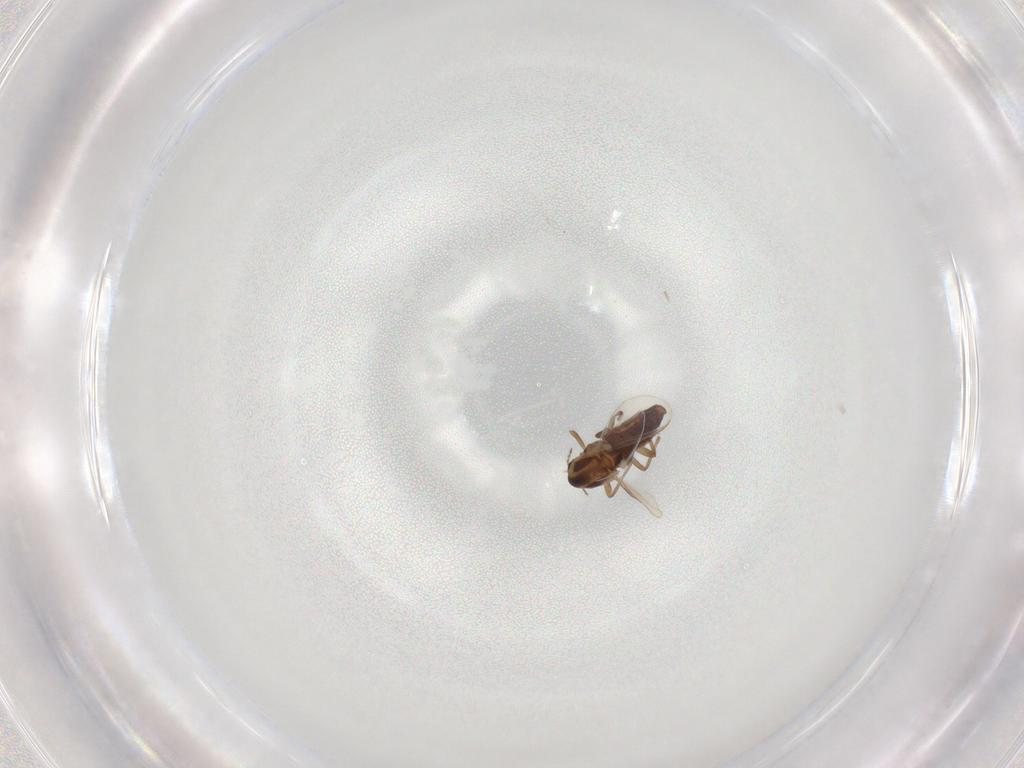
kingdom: Animalia
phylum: Arthropoda
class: Insecta
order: Diptera
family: Chironomidae
